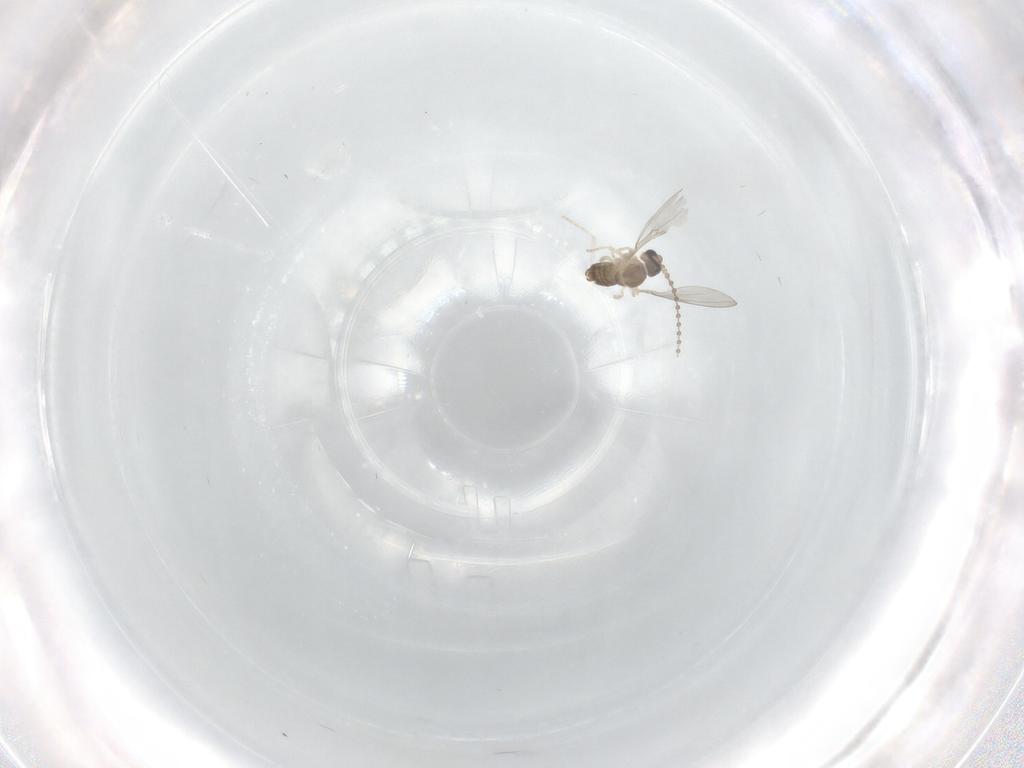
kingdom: Animalia
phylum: Arthropoda
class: Insecta
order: Diptera
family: Cecidomyiidae
